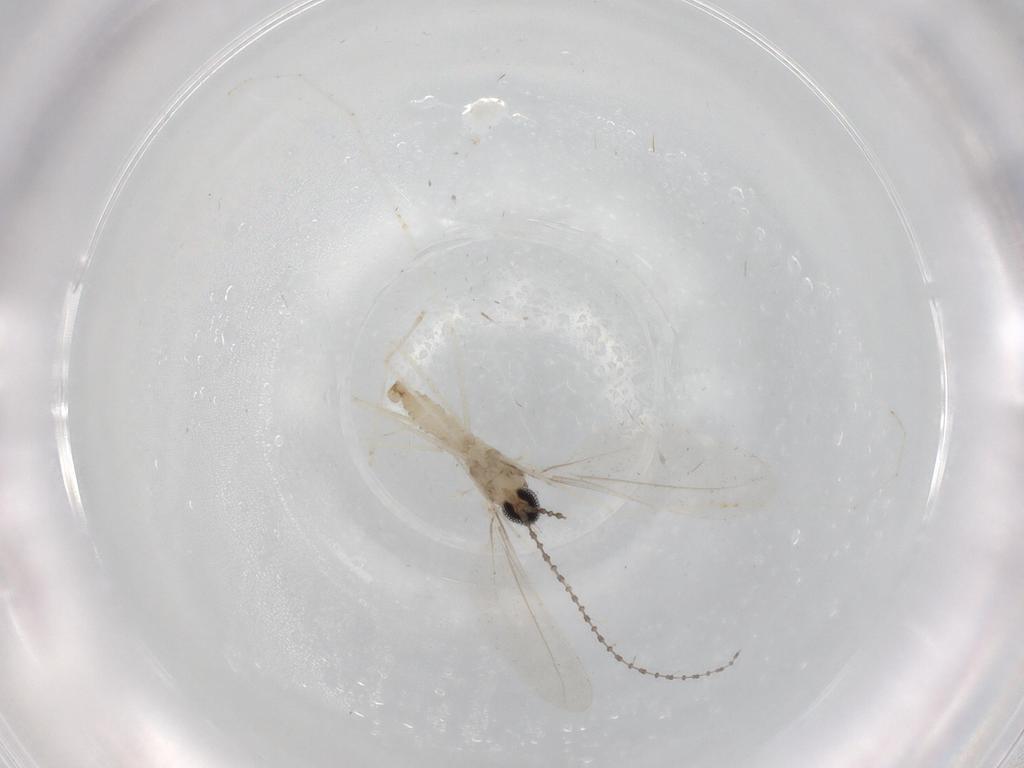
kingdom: Animalia
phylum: Arthropoda
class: Insecta
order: Diptera
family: Cecidomyiidae
